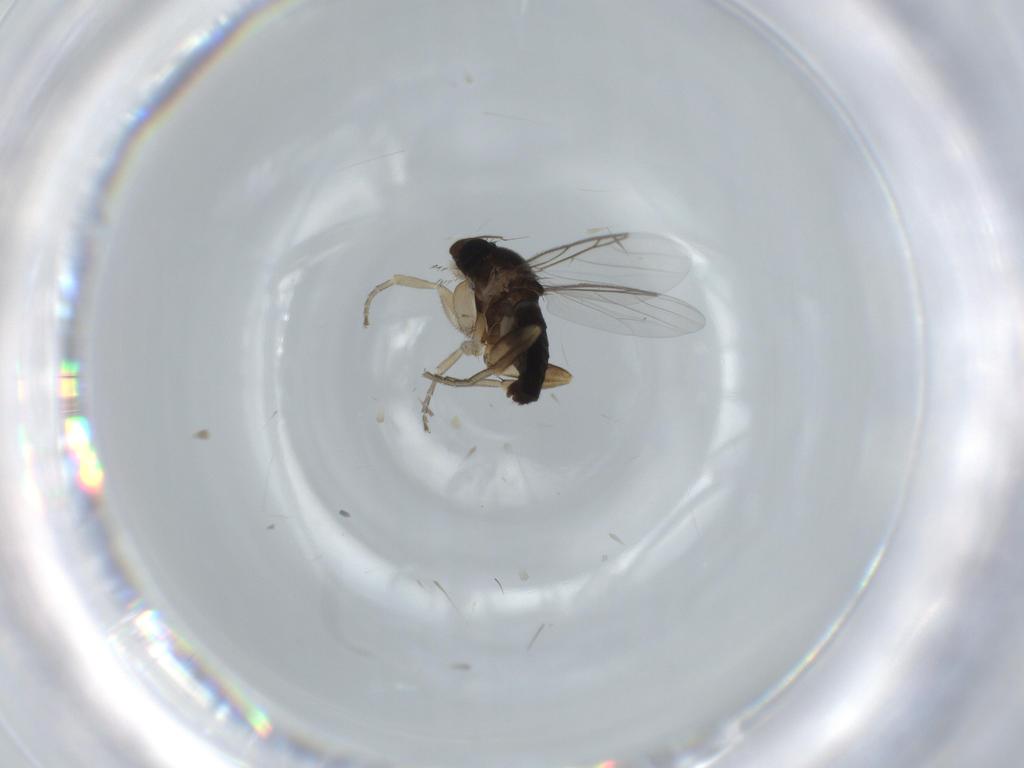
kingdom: Animalia
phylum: Arthropoda
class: Insecta
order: Diptera
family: Phoridae
